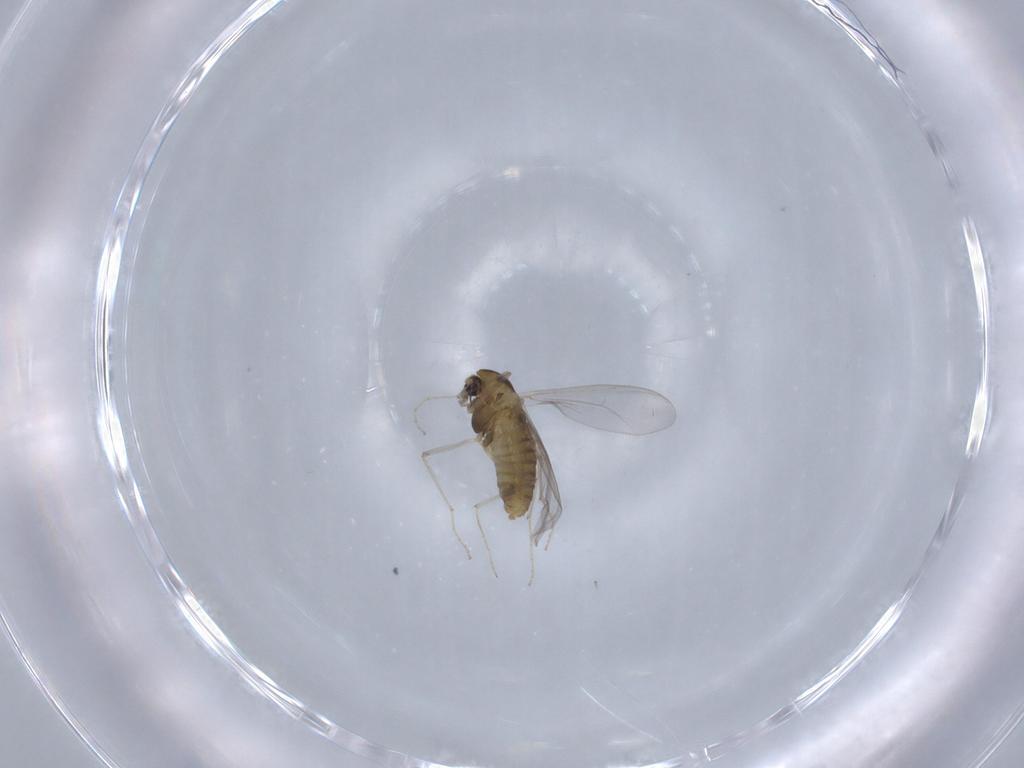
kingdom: Animalia
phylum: Arthropoda
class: Insecta
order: Diptera
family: Chironomidae
